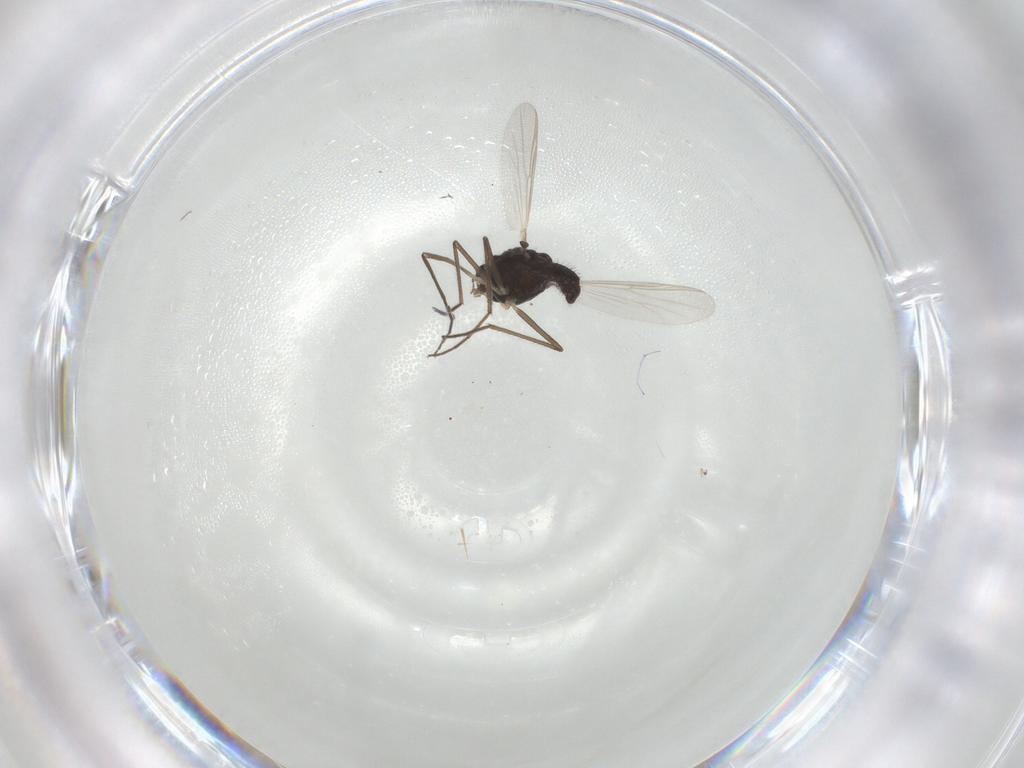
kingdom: Animalia
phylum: Arthropoda
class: Insecta
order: Diptera
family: Chironomidae
